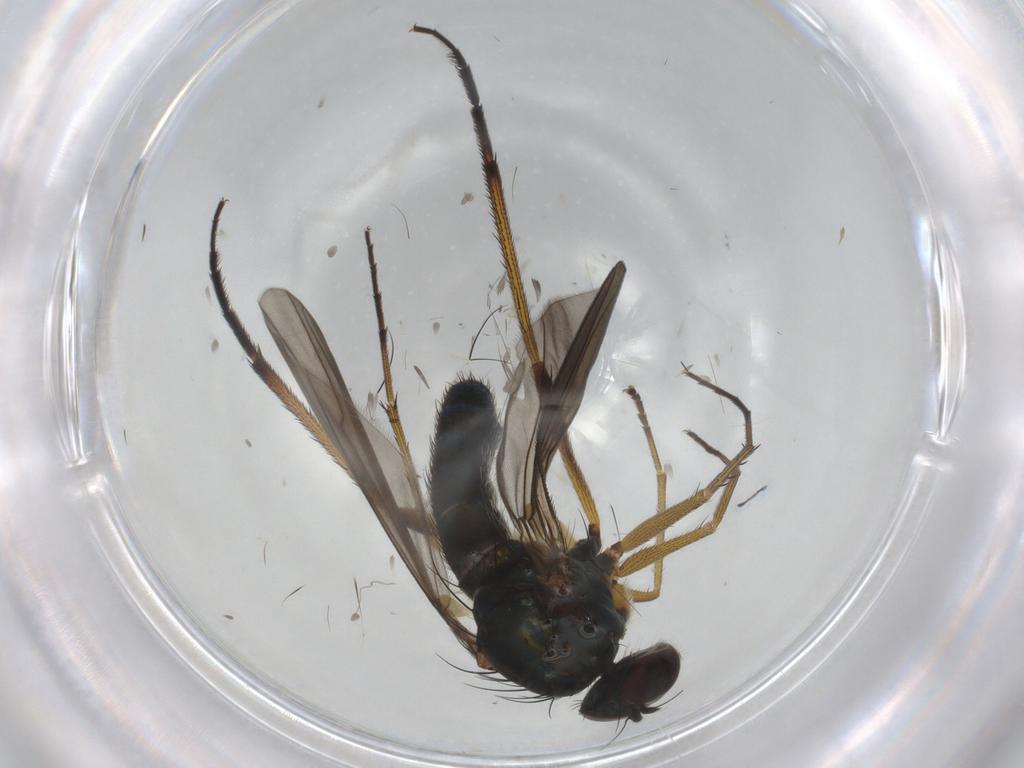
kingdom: Animalia
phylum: Arthropoda
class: Insecta
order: Diptera
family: Dolichopodidae
